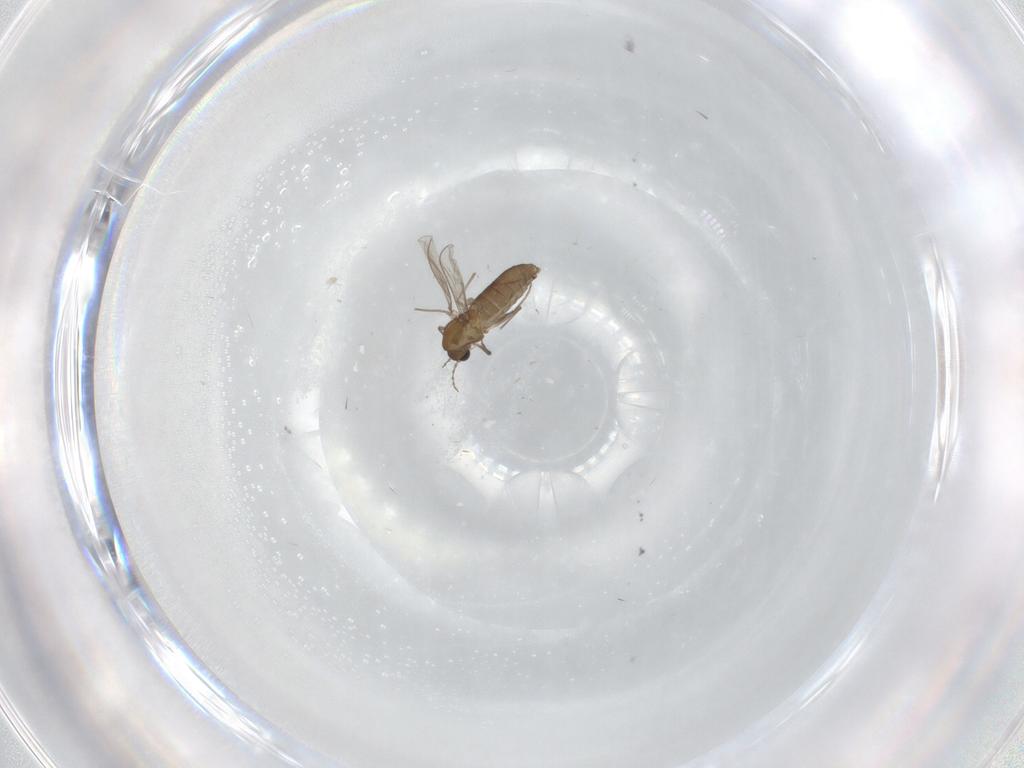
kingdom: Animalia
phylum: Arthropoda
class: Insecta
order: Diptera
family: Chironomidae
